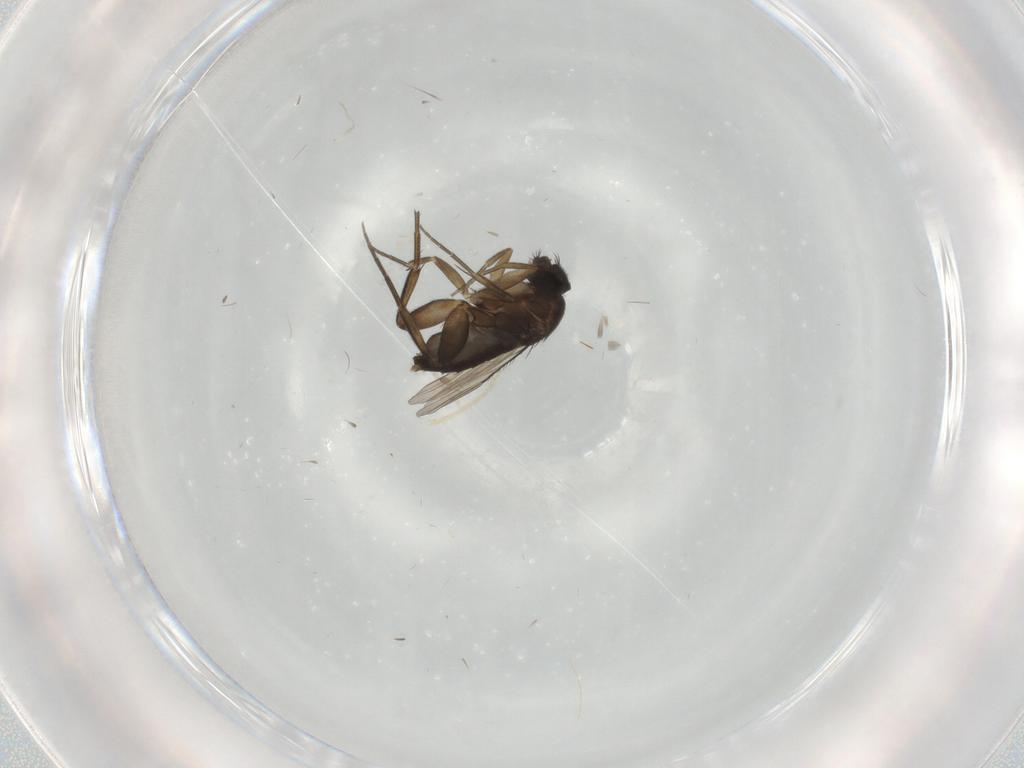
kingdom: Animalia
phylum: Arthropoda
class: Insecta
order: Diptera
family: Phoridae
